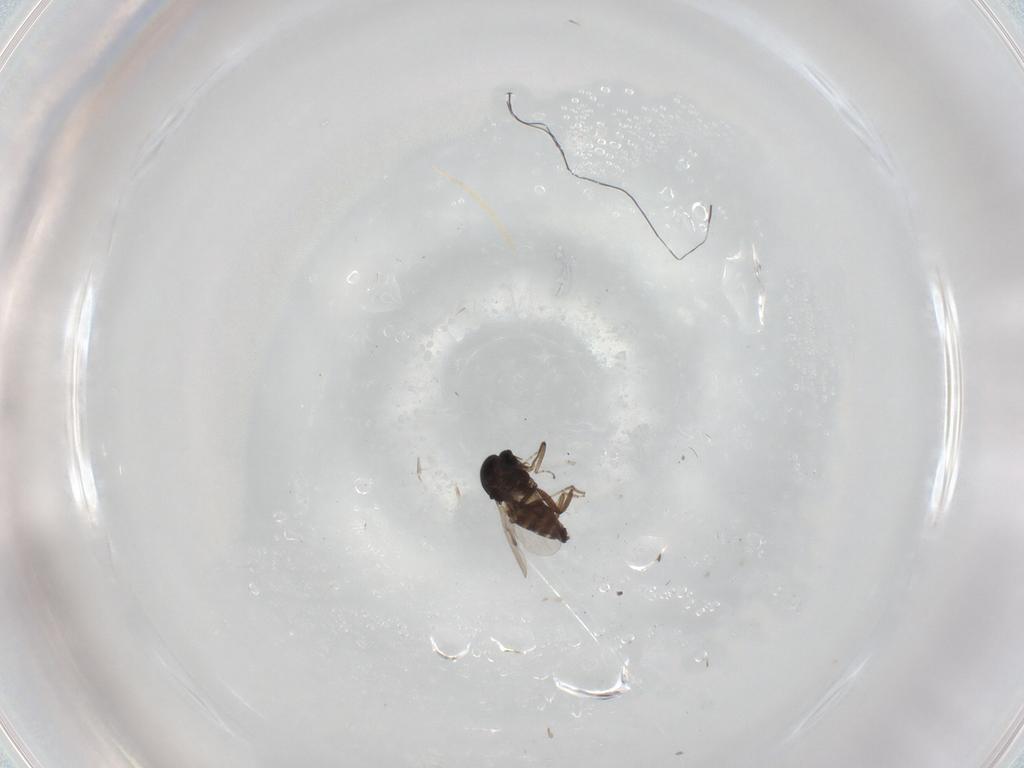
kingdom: Animalia
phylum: Arthropoda
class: Insecta
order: Diptera
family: Ceratopogonidae
